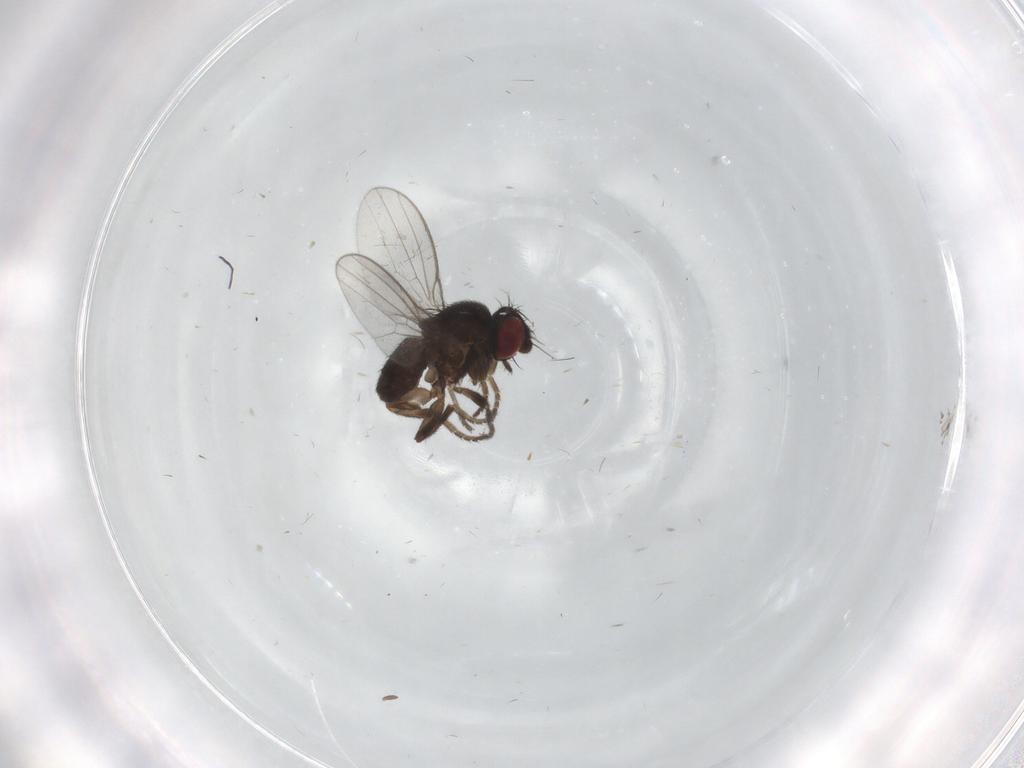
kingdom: Animalia
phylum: Arthropoda
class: Insecta
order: Diptera
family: Milichiidae
